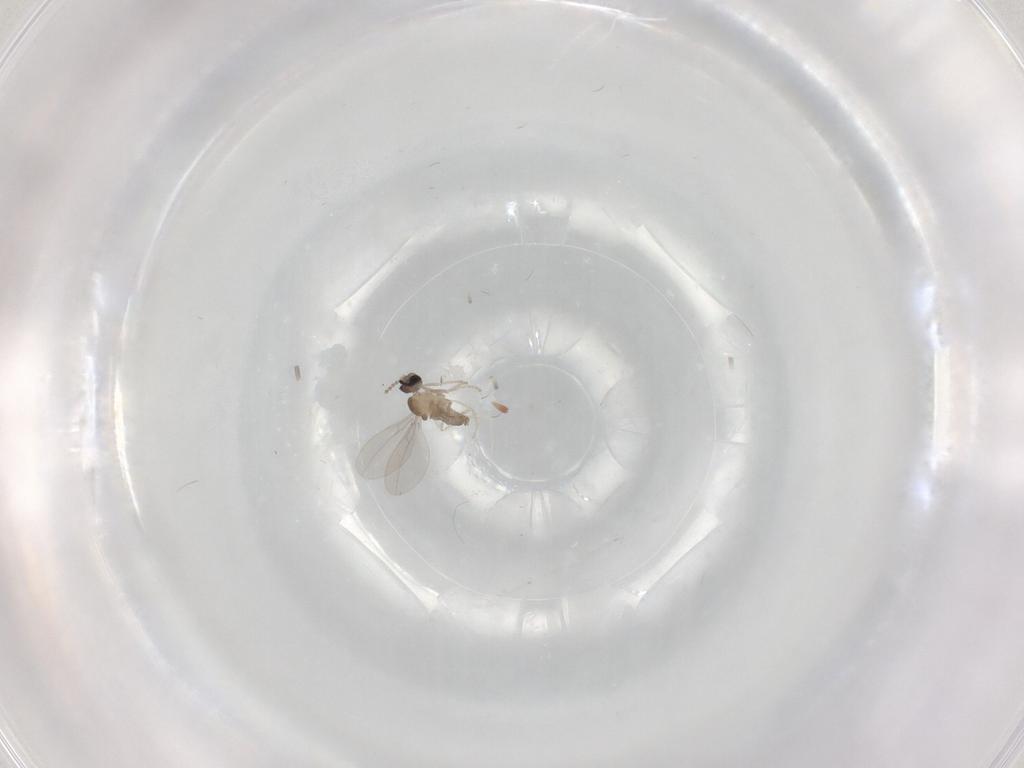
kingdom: Animalia
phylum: Arthropoda
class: Insecta
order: Diptera
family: Sciaridae
